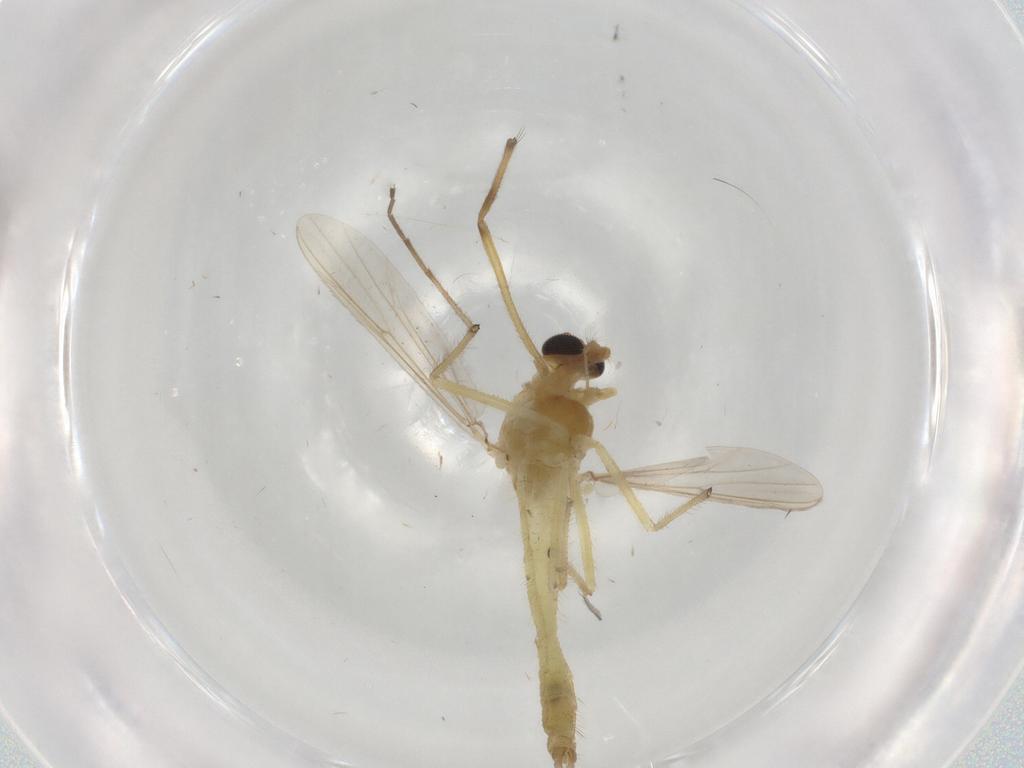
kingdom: Animalia
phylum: Arthropoda
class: Insecta
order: Diptera
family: Chironomidae
